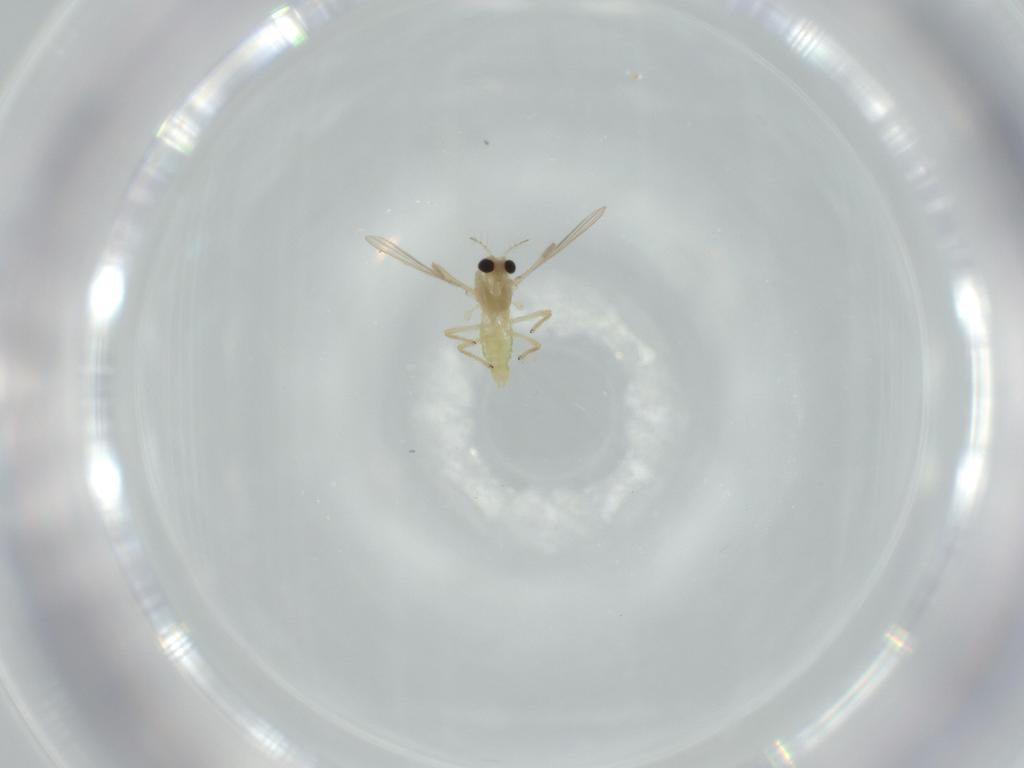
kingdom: Animalia
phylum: Arthropoda
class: Insecta
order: Diptera
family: Chironomidae
